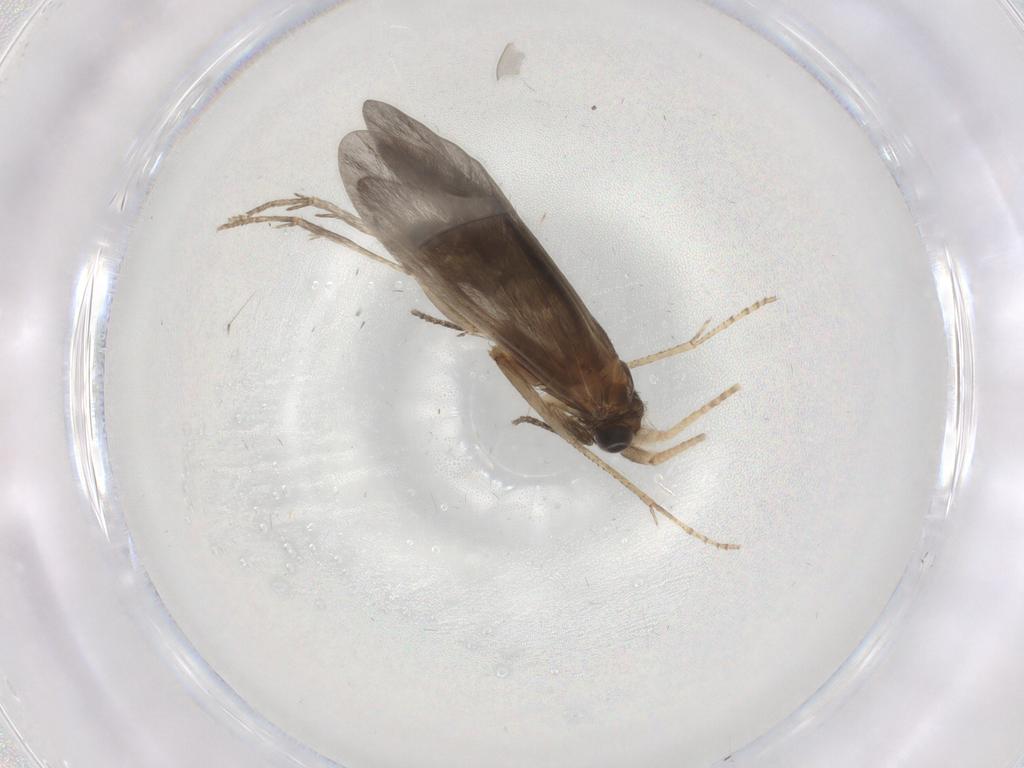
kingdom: Animalia
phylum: Arthropoda
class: Insecta
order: Trichoptera
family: Helicopsychidae
